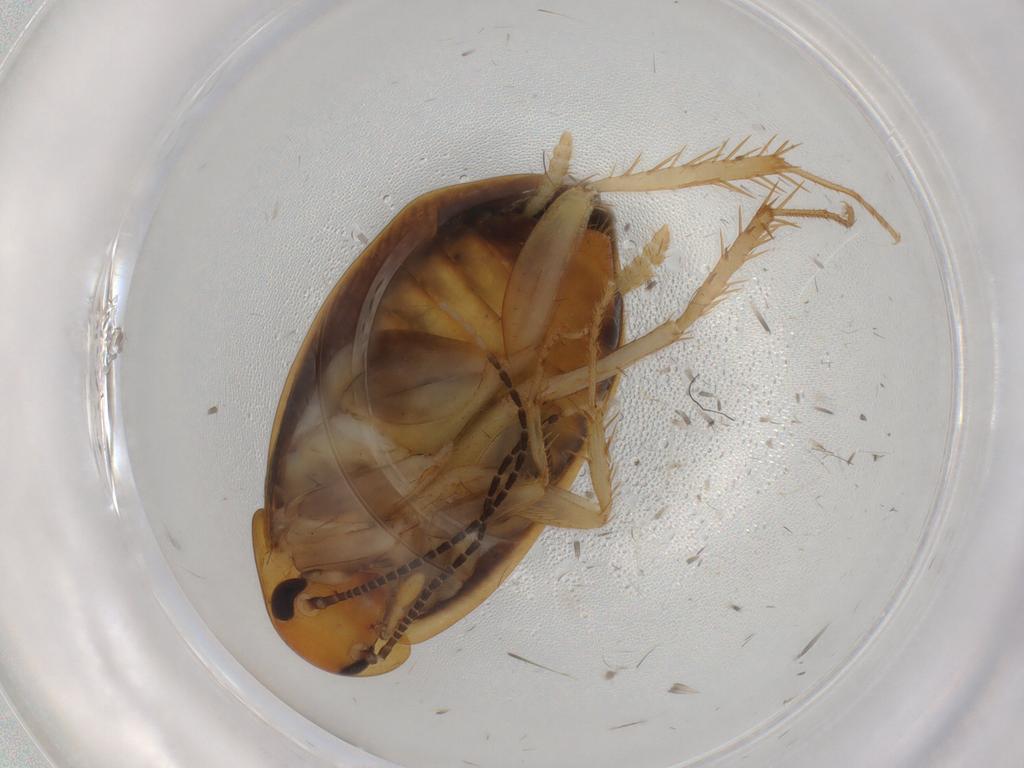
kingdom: Animalia
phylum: Arthropoda
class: Insecta
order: Blattodea
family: Tryonicidae
